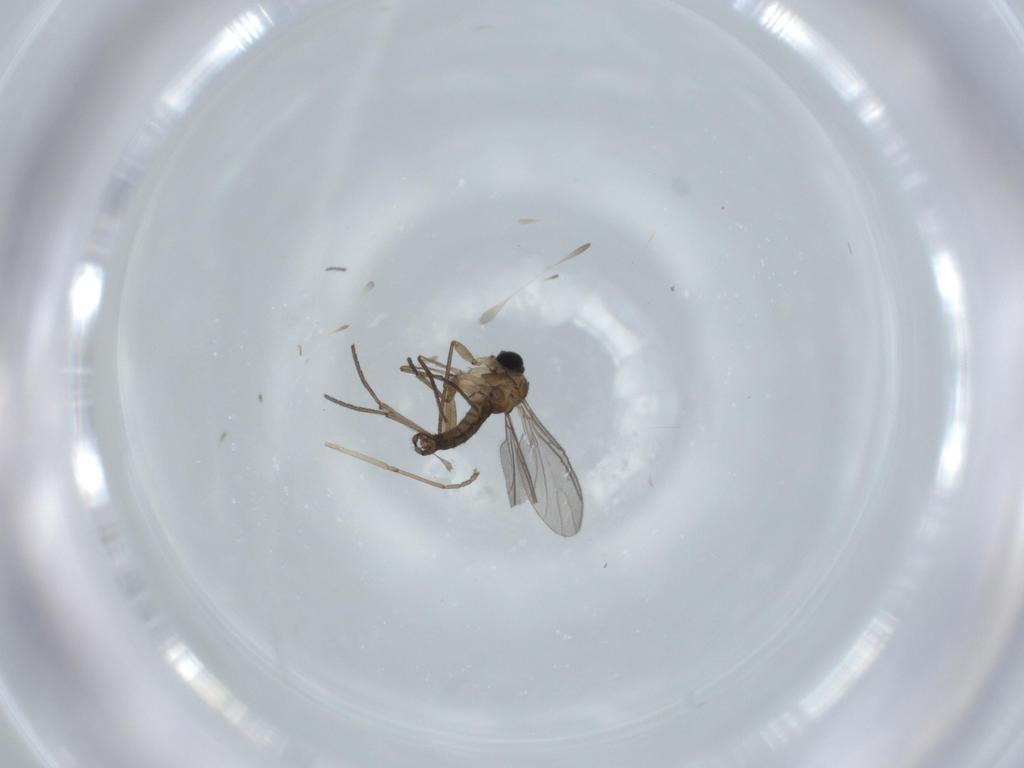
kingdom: Animalia
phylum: Arthropoda
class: Insecta
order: Diptera
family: Sciaridae
